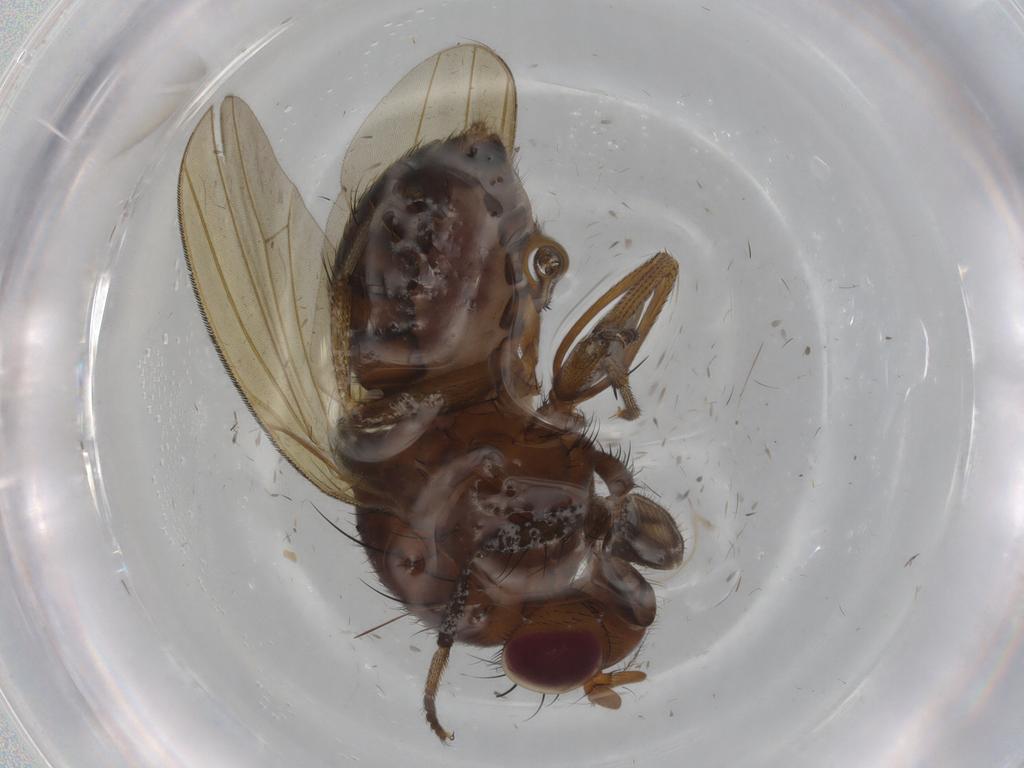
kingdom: Animalia
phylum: Arthropoda
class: Insecta
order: Diptera
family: Ceratopogonidae
